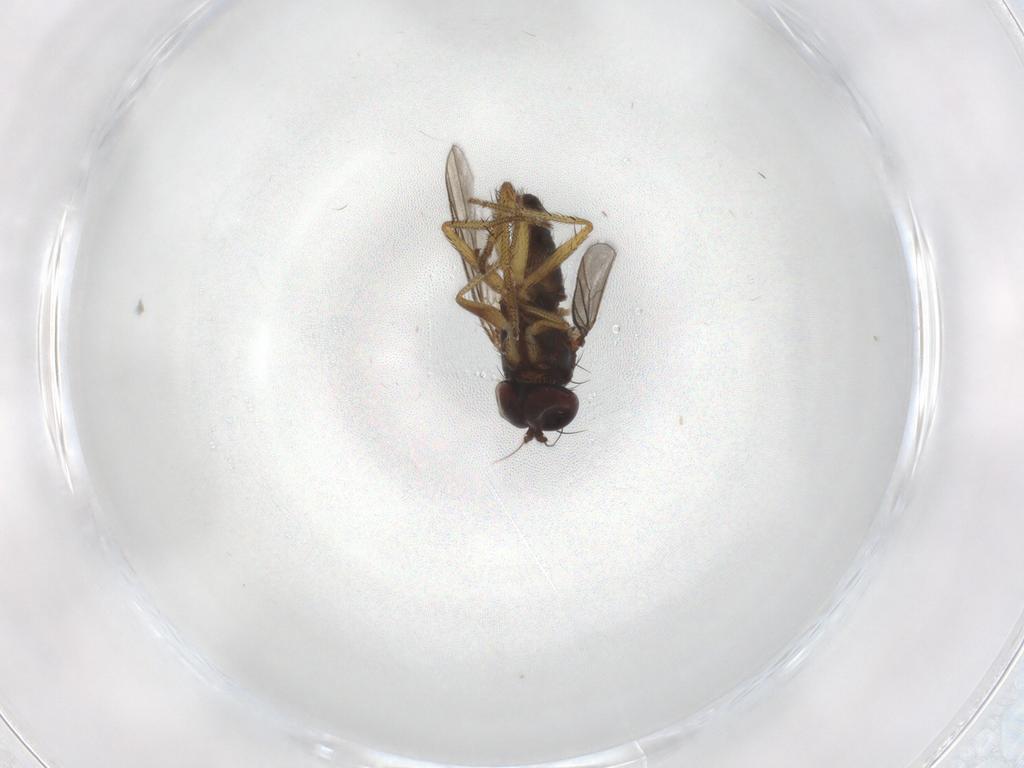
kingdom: Animalia
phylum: Arthropoda
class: Insecta
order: Diptera
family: Dolichopodidae
